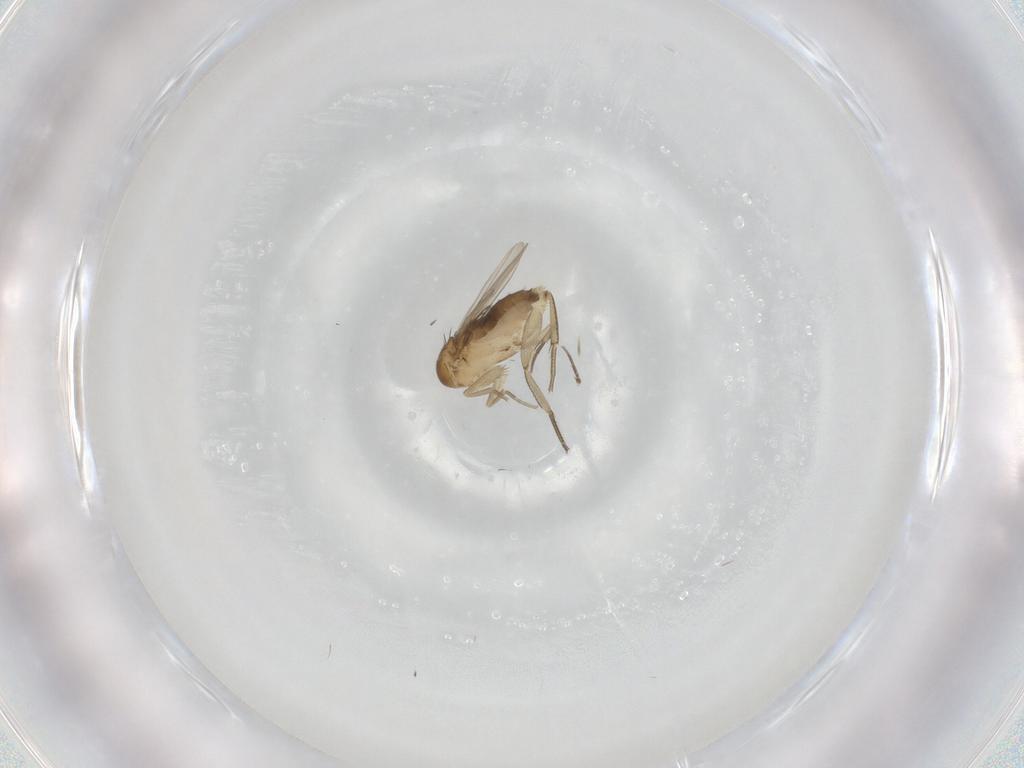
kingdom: Animalia
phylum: Arthropoda
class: Insecta
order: Diptera
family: Phoridae
